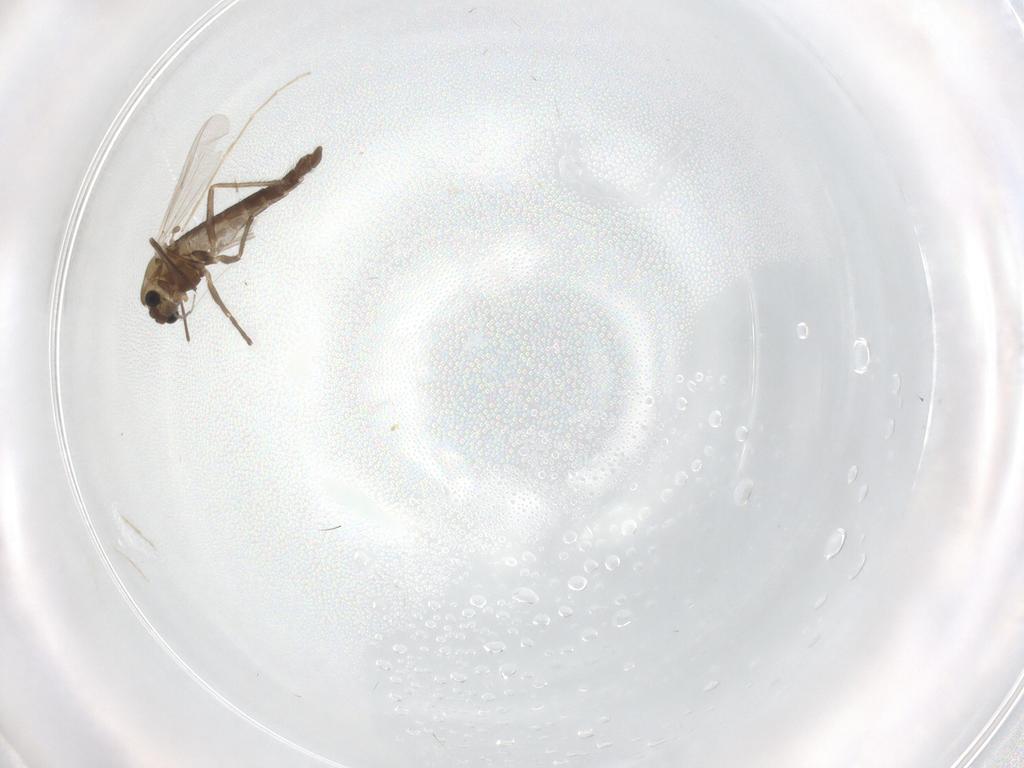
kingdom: Animalia
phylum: Arthropoda
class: Insecta
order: Diptera
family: Chironomidae
